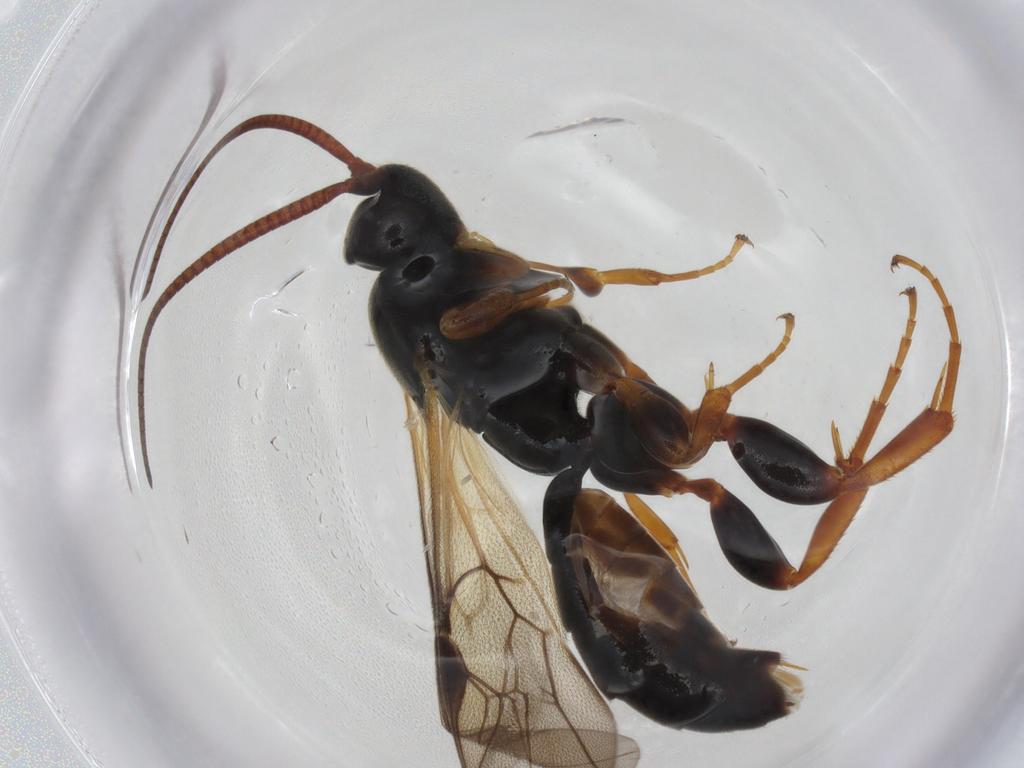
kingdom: Animalia
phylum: Arthropoda
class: Insecta
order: Hymenoptera
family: Ichneumonidae
